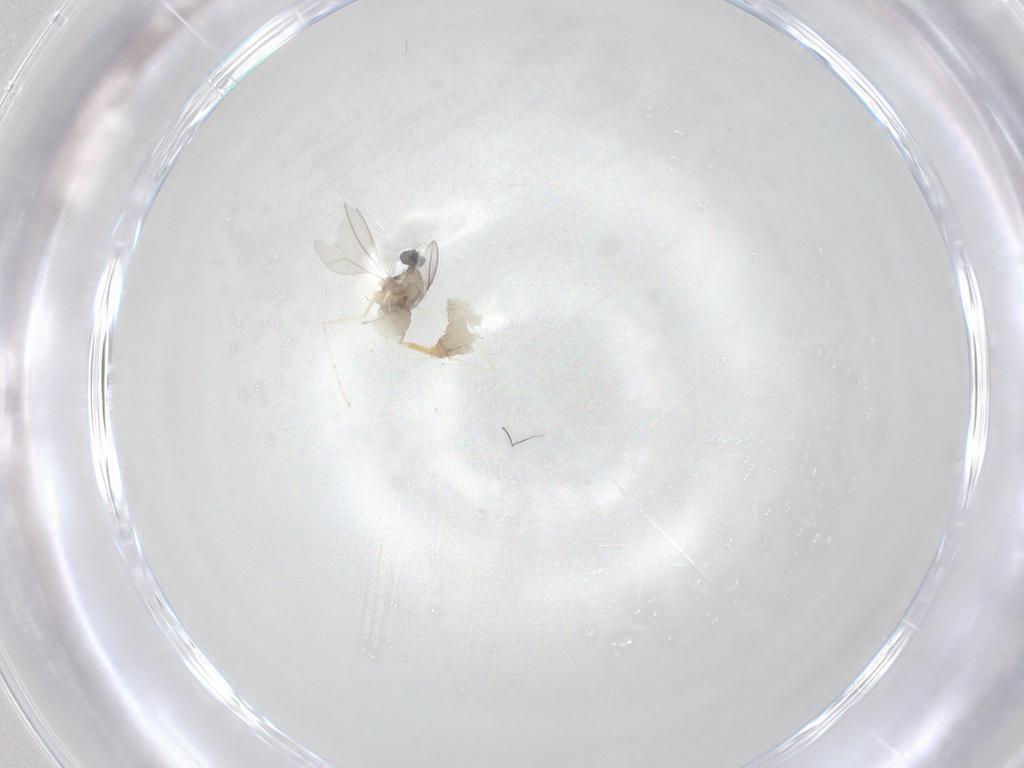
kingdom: Animalia
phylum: Arthropoda
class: Insecta
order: Diptera
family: Cecidomyiidae
